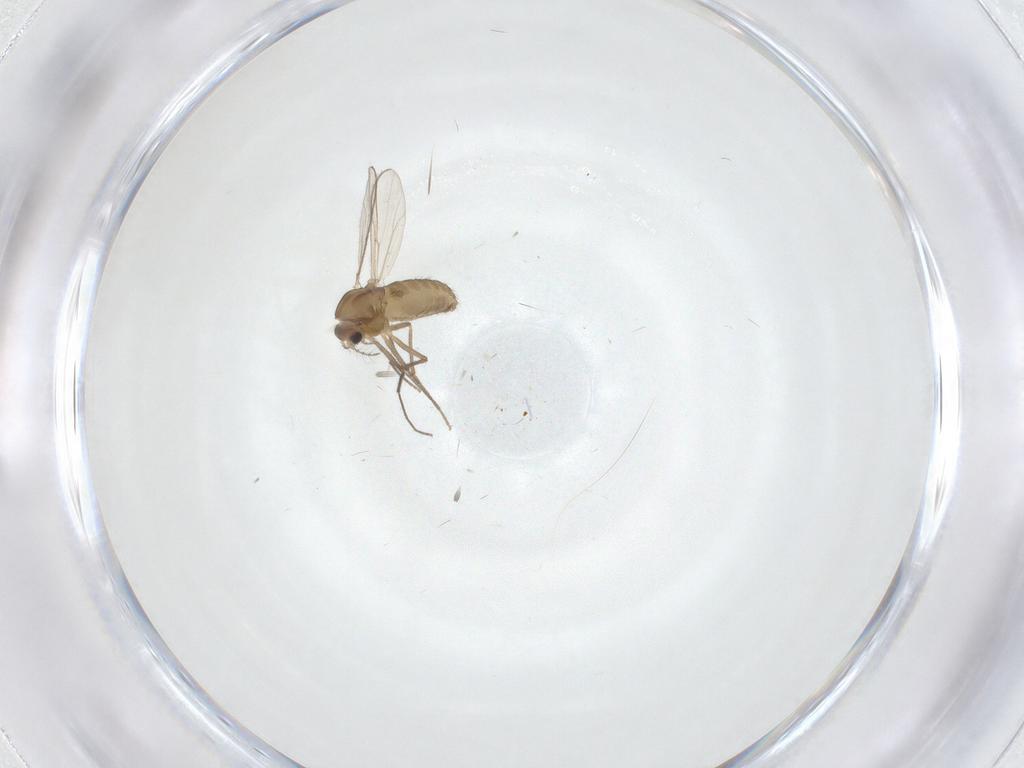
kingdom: Animalia
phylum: Arthropoda
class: Insecta
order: Diptera
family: Chironomidae
